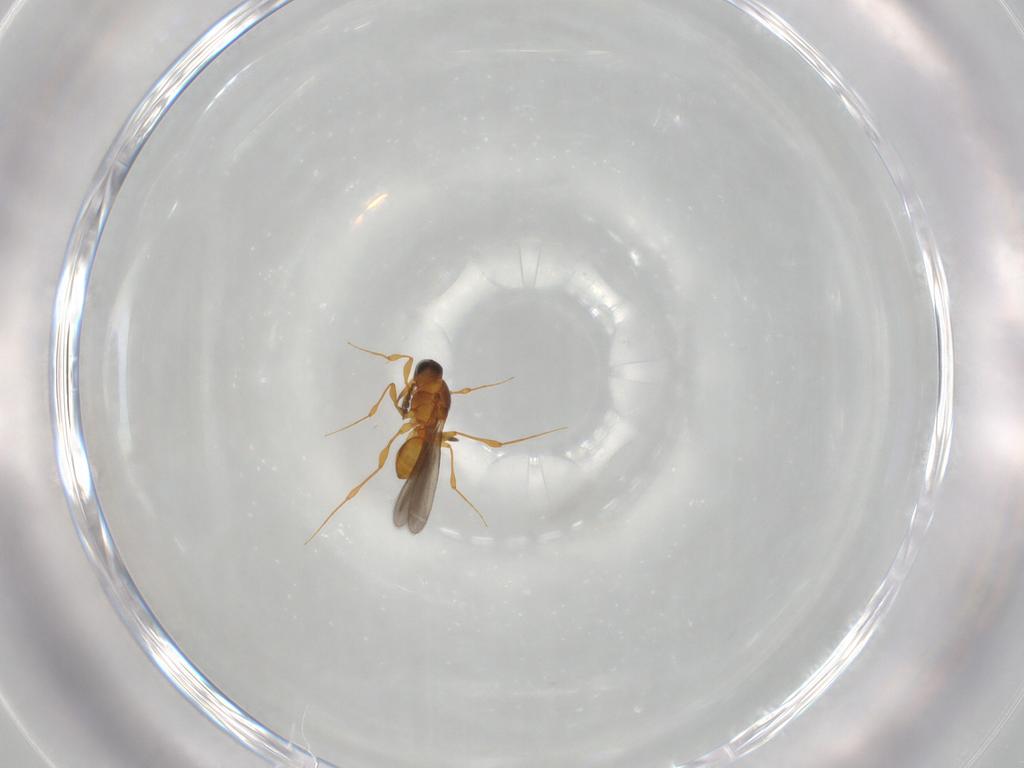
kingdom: Animalia
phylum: Arthropoda
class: Insecta
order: Hymenoptera
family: Platygastridae
